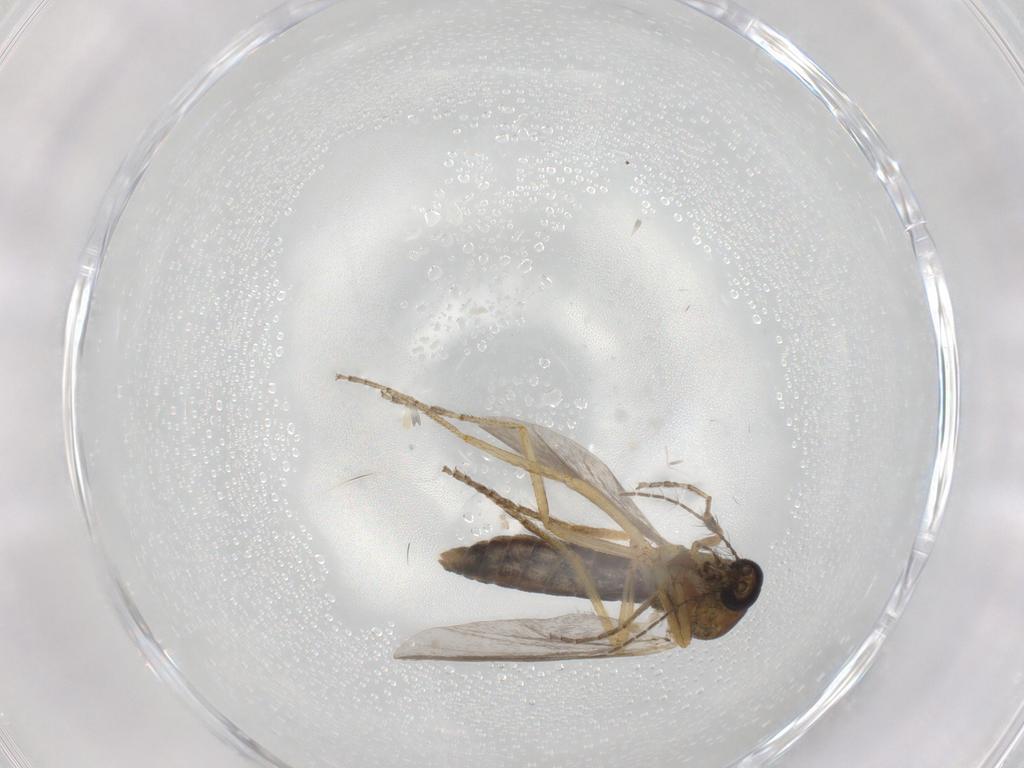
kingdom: Animalia
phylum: Arthropoda
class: Insecta
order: Diptera
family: Ceratopogonidae
